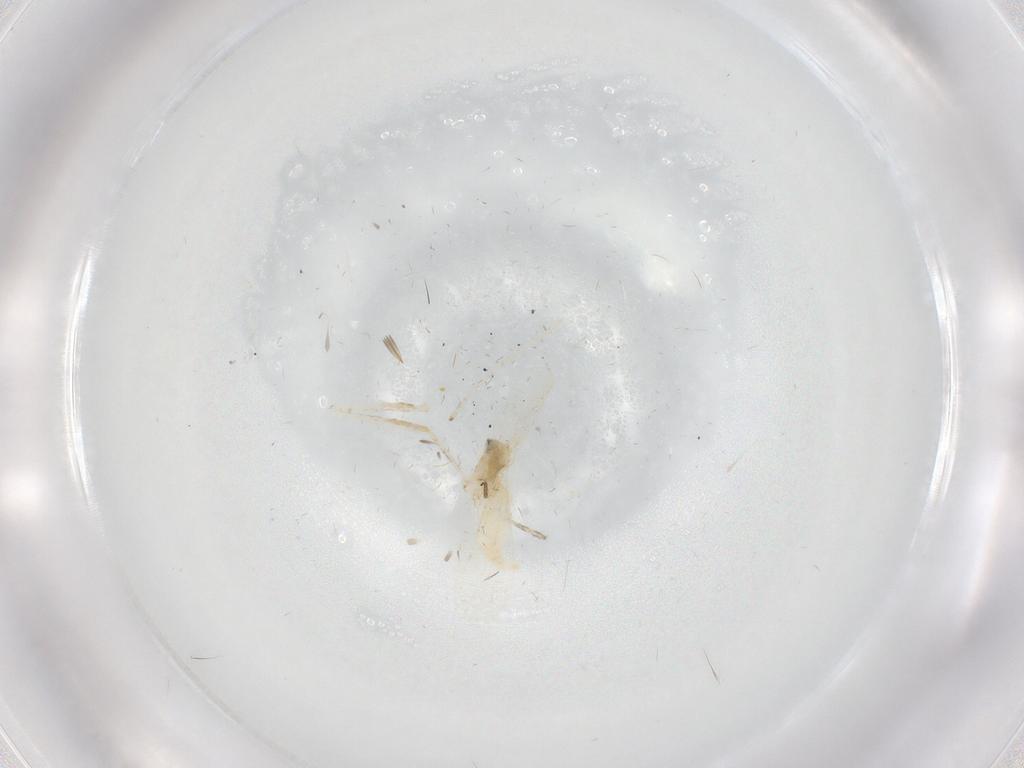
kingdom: Animalia
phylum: Arthropoda
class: Insecta
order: Diptera
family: Cecidomyiidae
